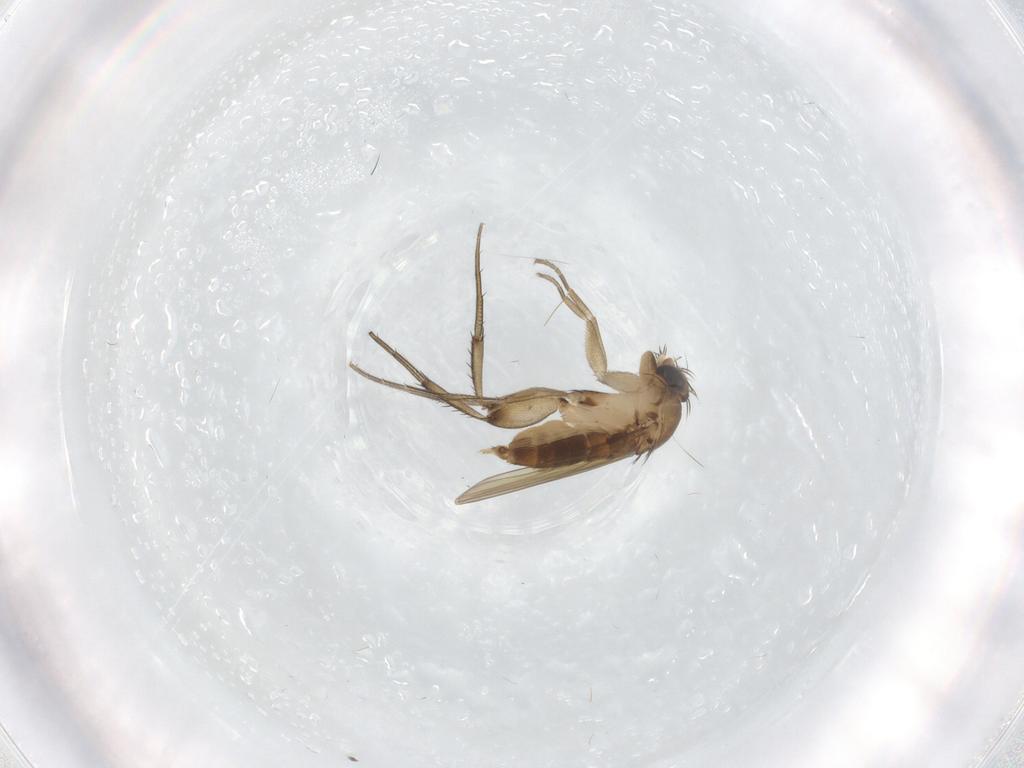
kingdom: Animalia
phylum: Arthropoda
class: Insecta
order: Diptera
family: Phoridae
